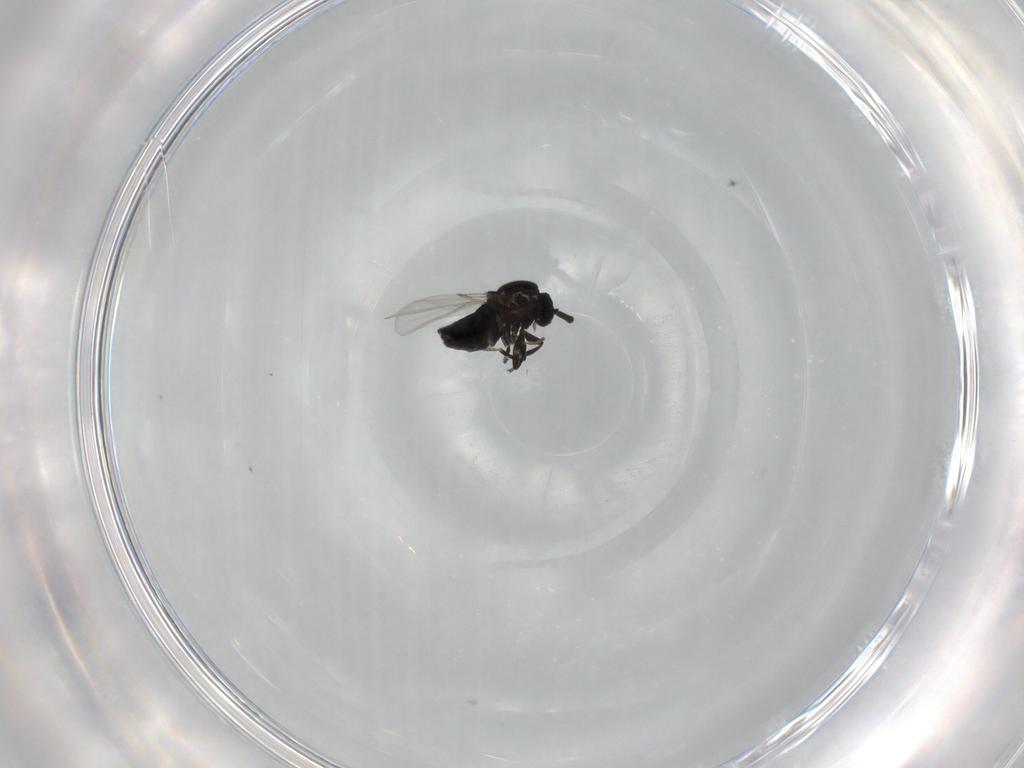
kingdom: Animalia
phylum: Arthropoda
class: Insecta
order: Diptera
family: Scatopsidae
